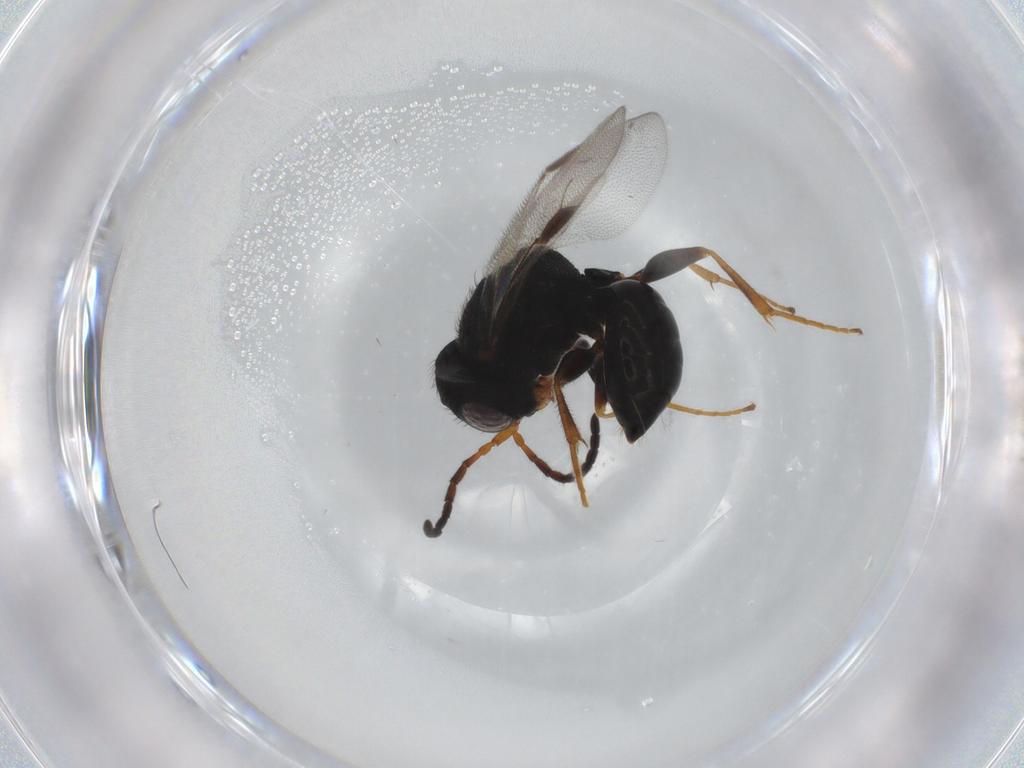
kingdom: Animalia
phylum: Arthropoda
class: Insecta
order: Hymenoptera
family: Dryinidae
